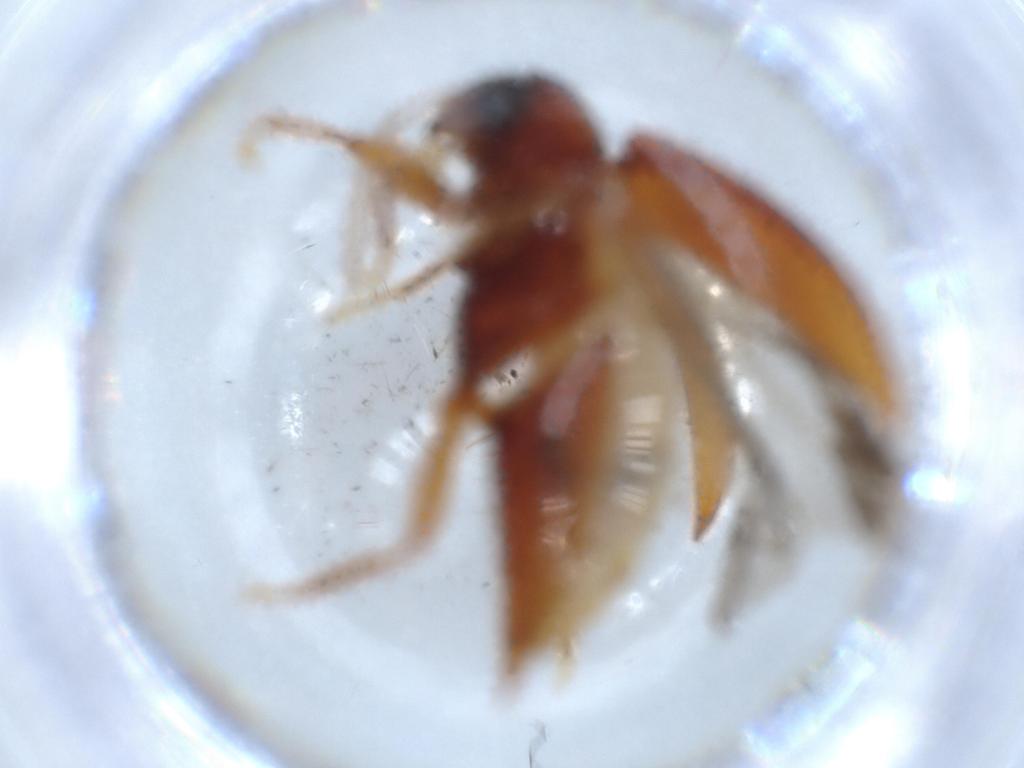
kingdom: Animalia
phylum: Arthropoda
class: Insecta
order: Coleoptera
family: Ptilodactylidae
